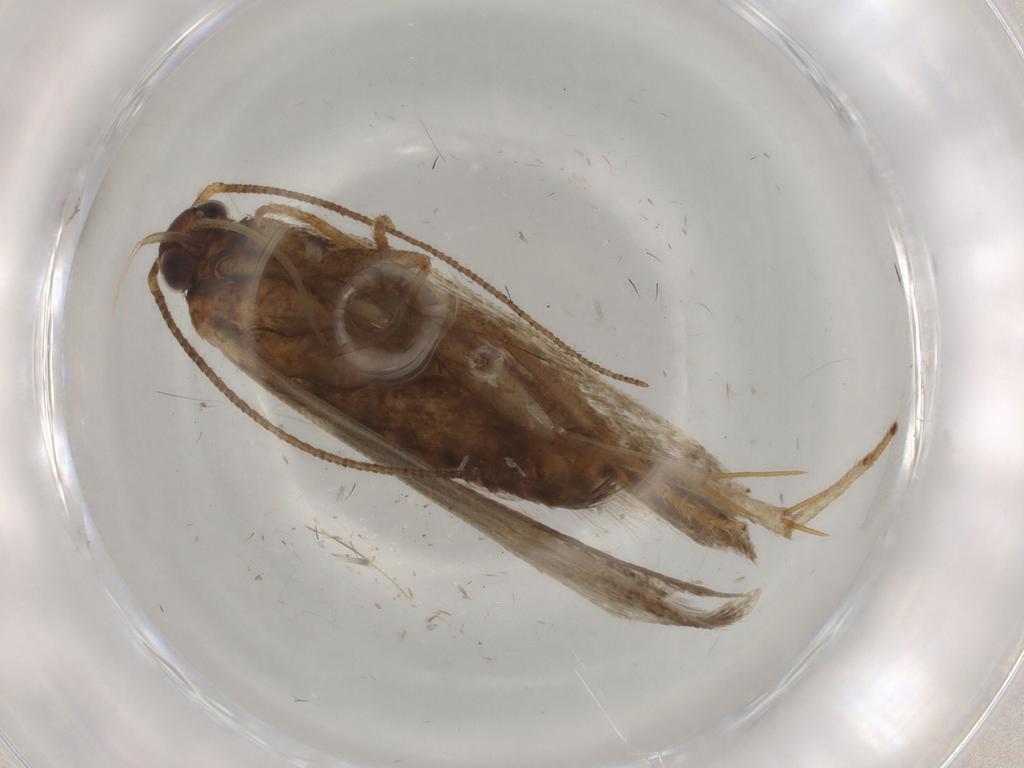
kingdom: Animalia
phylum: Arthropoda
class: Insecta
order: Lepidoptera
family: Gelechiidae
